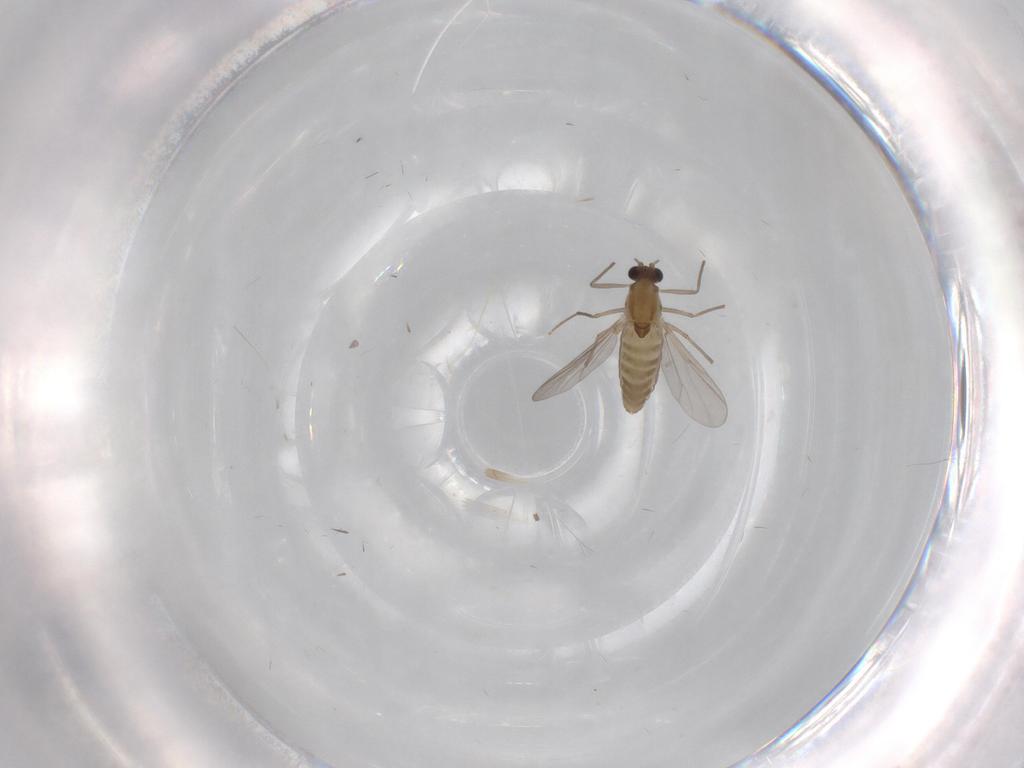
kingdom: Animalia
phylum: Arthropoda
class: Insecta
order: Diptera
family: Chironomidae
